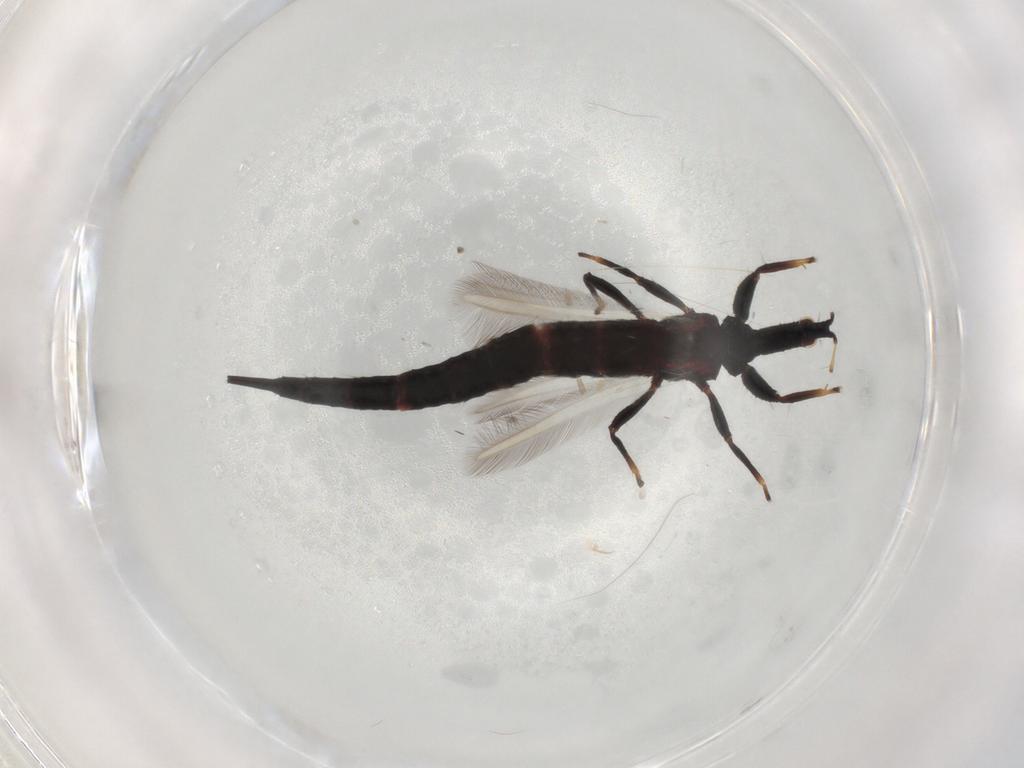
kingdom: Animalia
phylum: Arthropoda
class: Insecta
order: Thysanoptera
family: Phlaeothripidae
